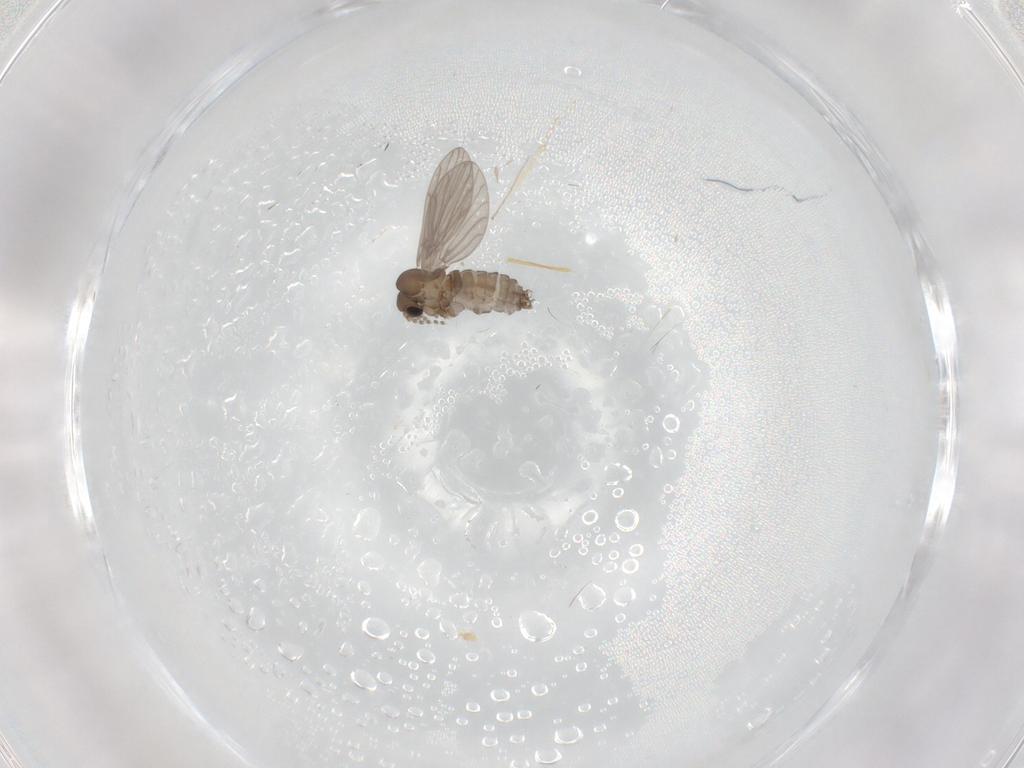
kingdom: Animalia
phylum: Arthropoda
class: Insecta
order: Diptera
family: Cecidomyiidae
